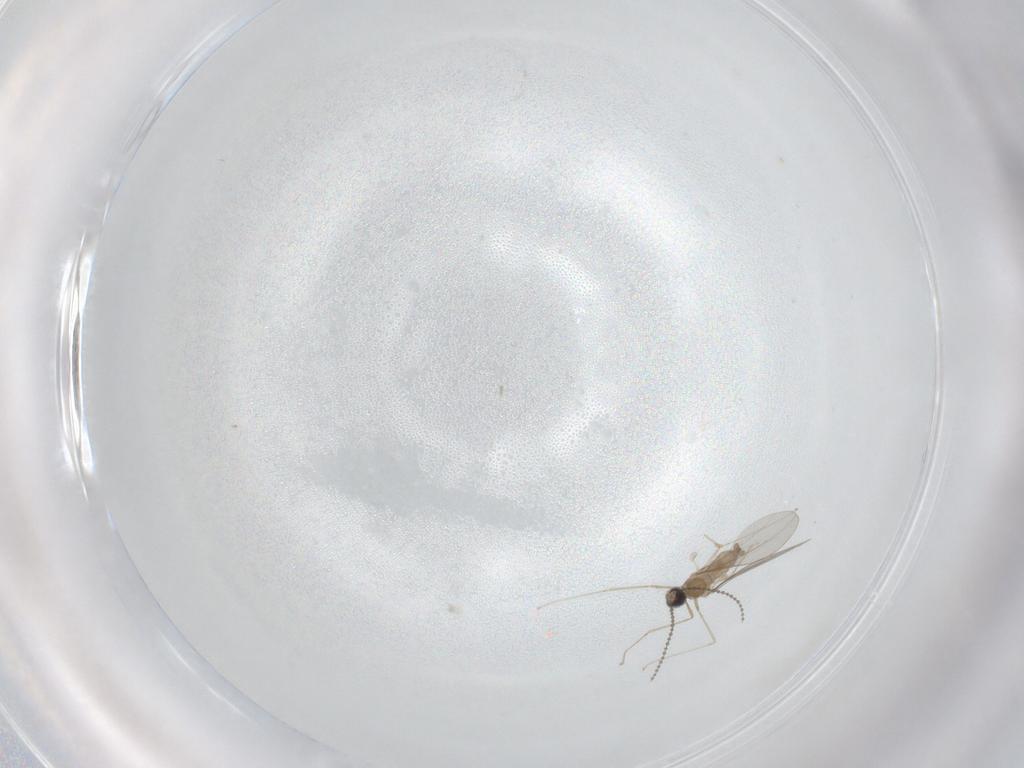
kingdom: Animalia
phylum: Arthropoda
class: Insecta
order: Diptera
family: Cecidomyiidae
